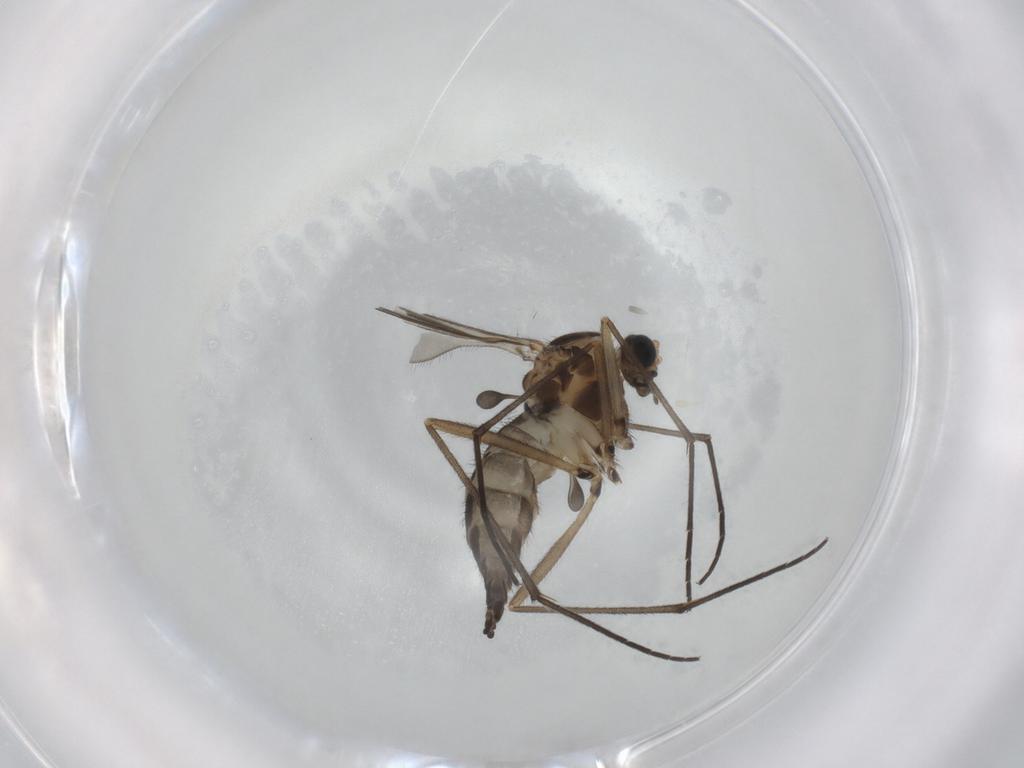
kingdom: Animalia
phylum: Arthropoda
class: Insecta
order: Diptera
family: Sciaridae
